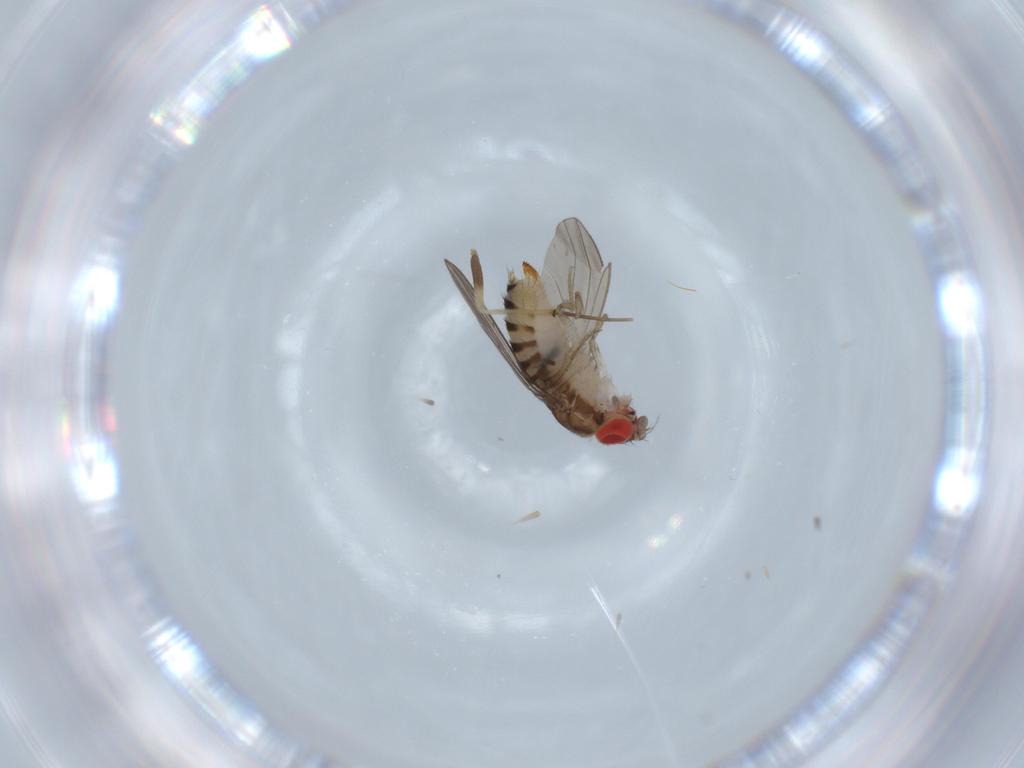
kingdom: Animalia
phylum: Arthropoda
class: Insecta
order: Diptera
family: Drosophilidae
